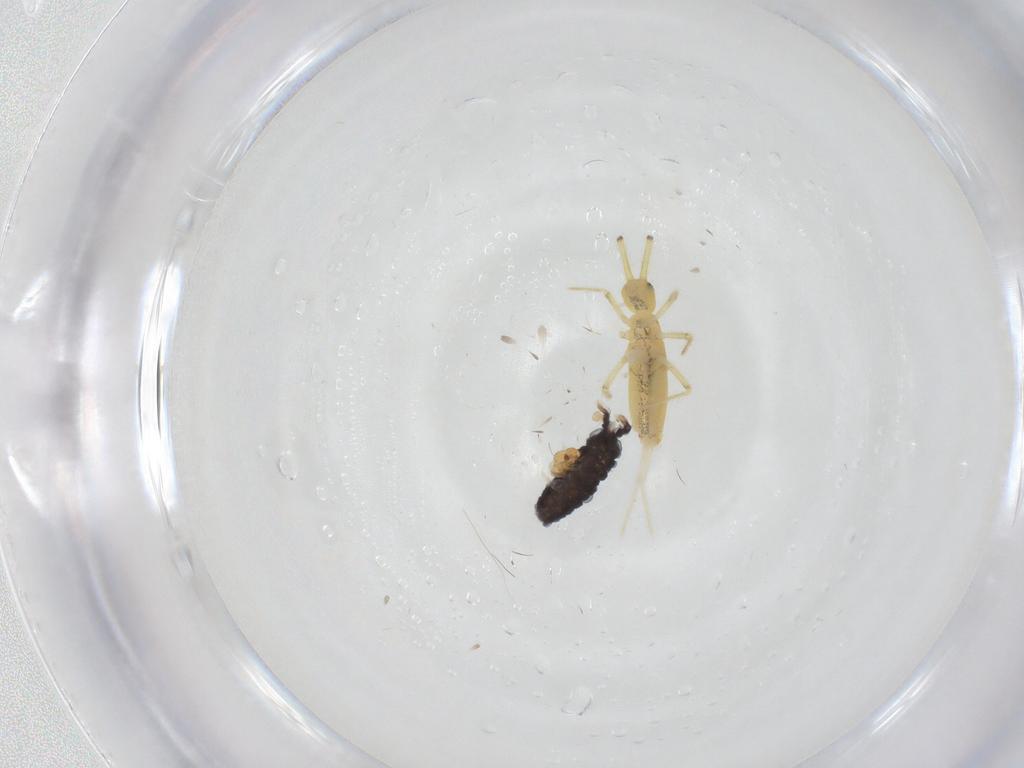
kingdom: Animalia
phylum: Arthropoda
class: Collembola
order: Poduromorpha
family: Neanuridae
